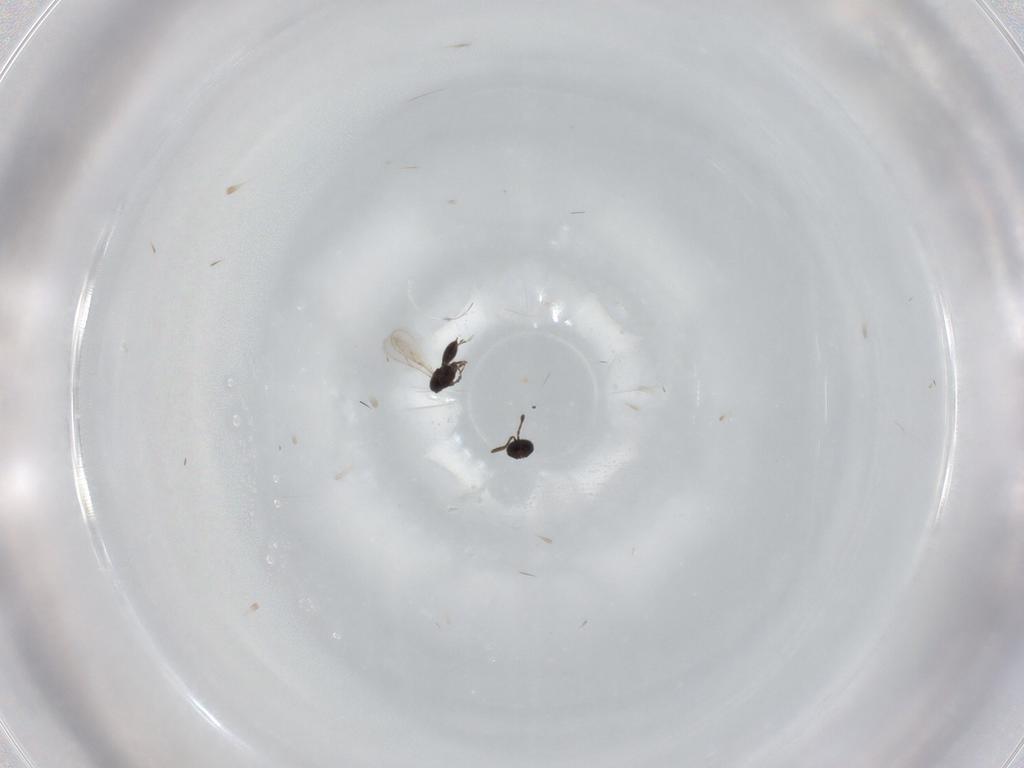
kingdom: Animalia
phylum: Arthropoda
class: Insecta
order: Hymenoptera
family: Scelionidae
